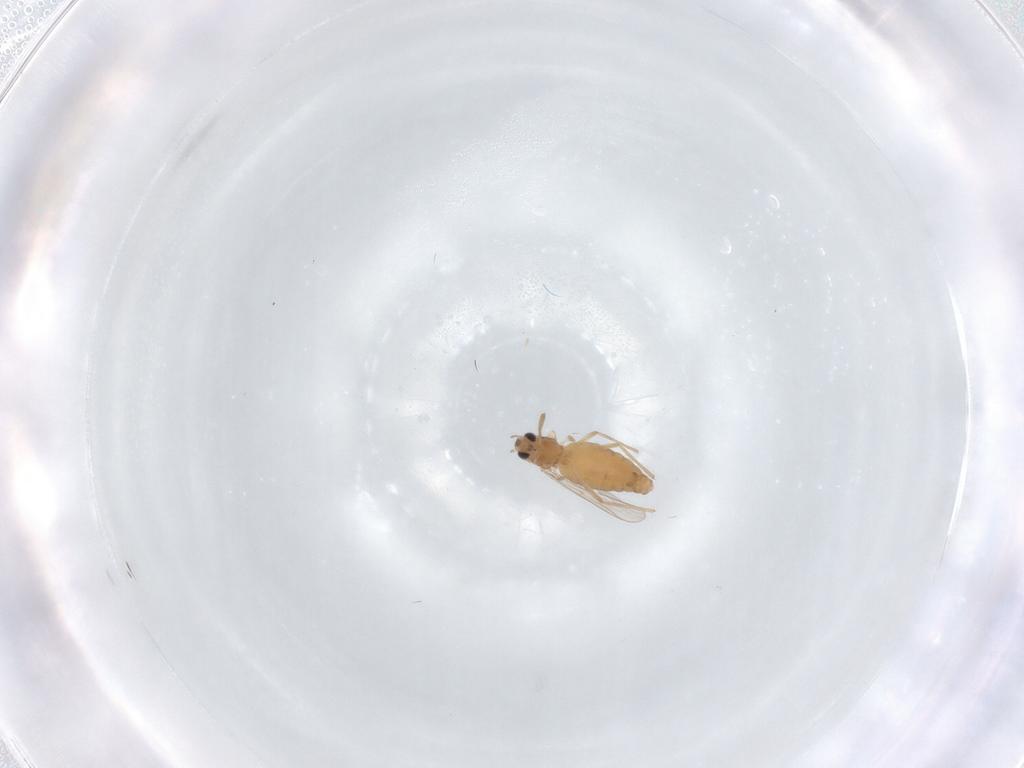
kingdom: Animalia
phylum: Arthropoda
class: Insecta
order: Diptera
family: Chironomidae
